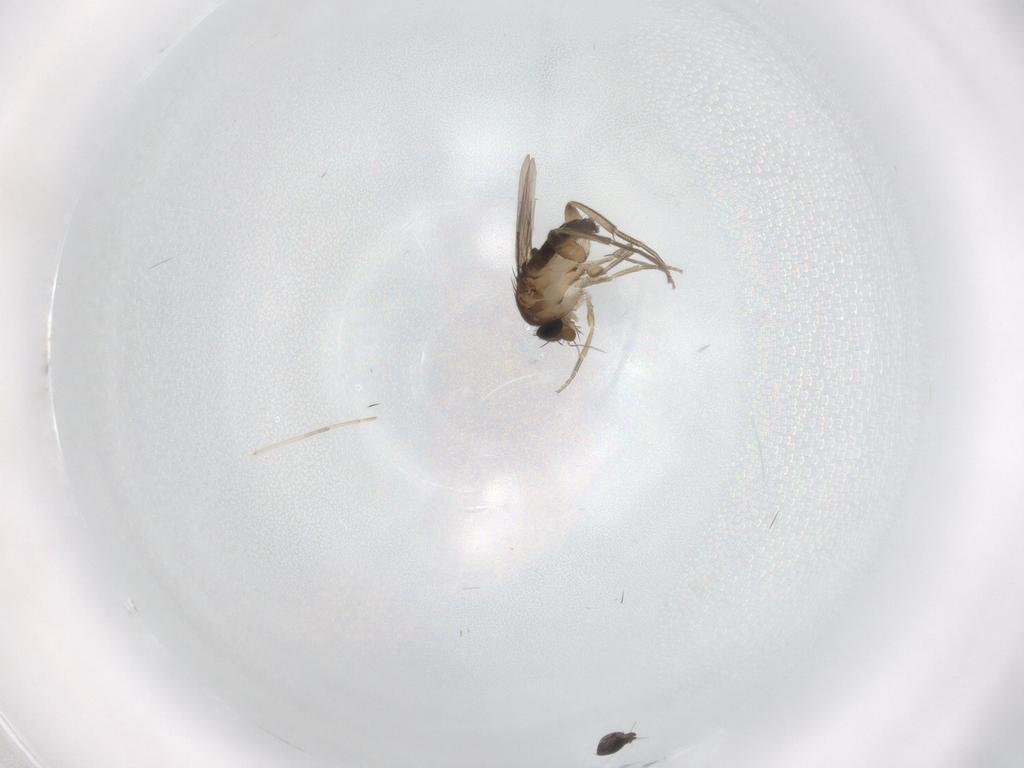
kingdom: Animalia
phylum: Arthropoda
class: Insecta
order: Diptera
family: Phoridae
